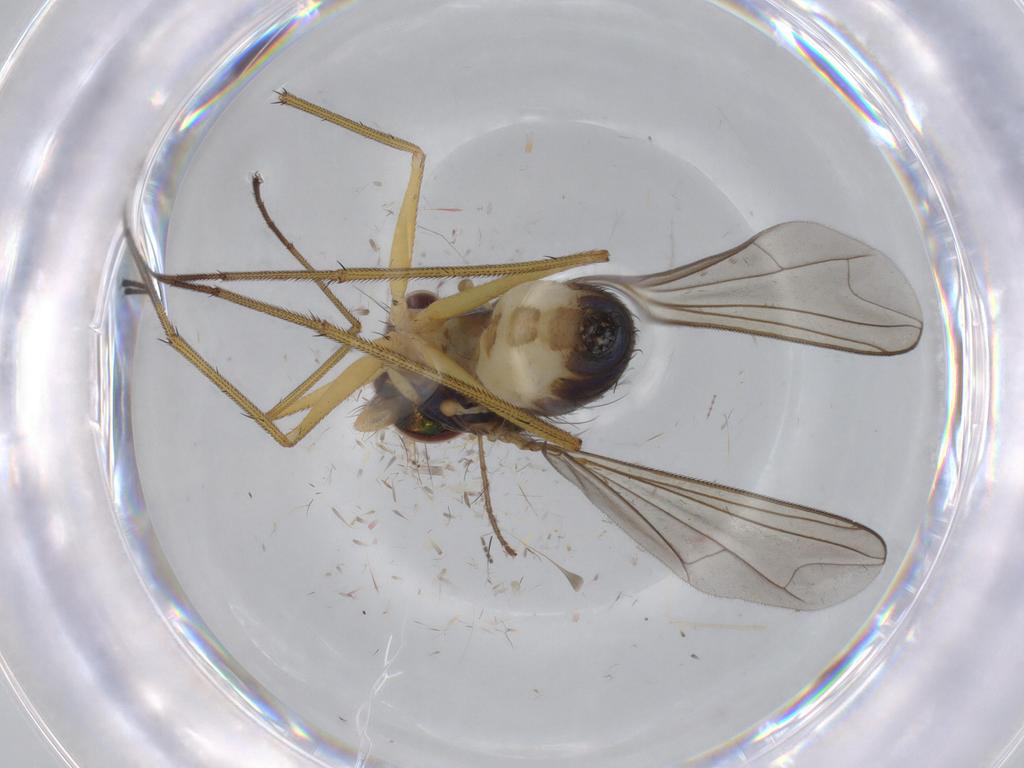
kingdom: Animalia
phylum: Arthropoda
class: Insecta
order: Diptera
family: Dolichopodidae
